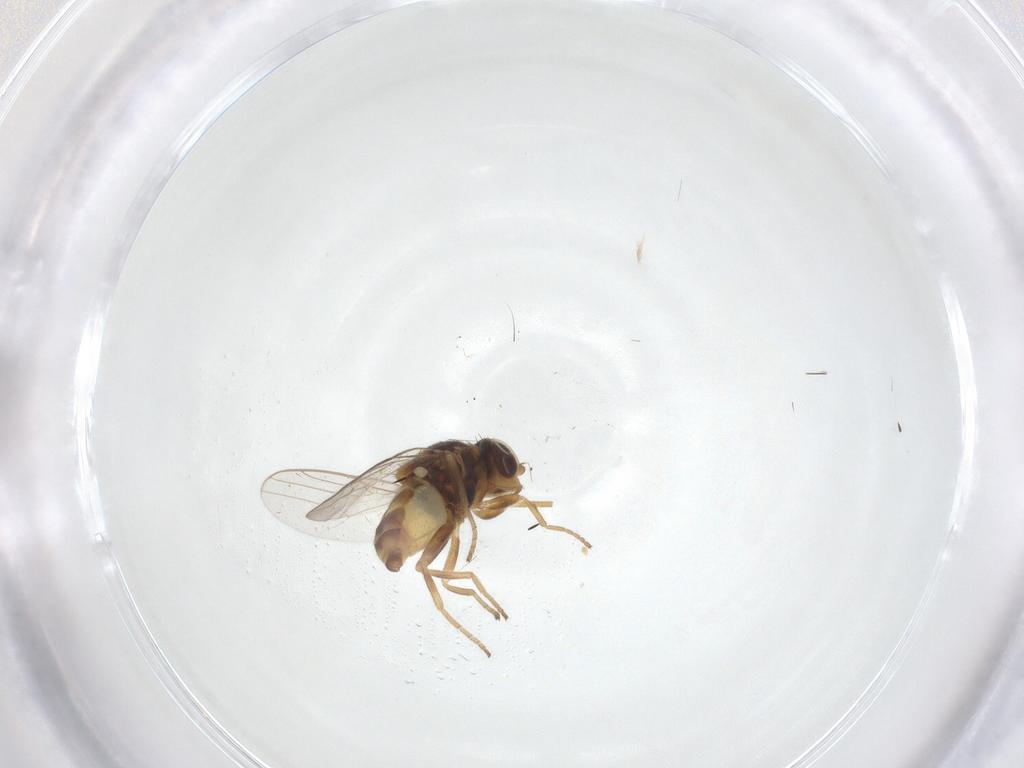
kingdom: Animalia
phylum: Arthropoda
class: Insecta
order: Diptera
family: Chloropidae
